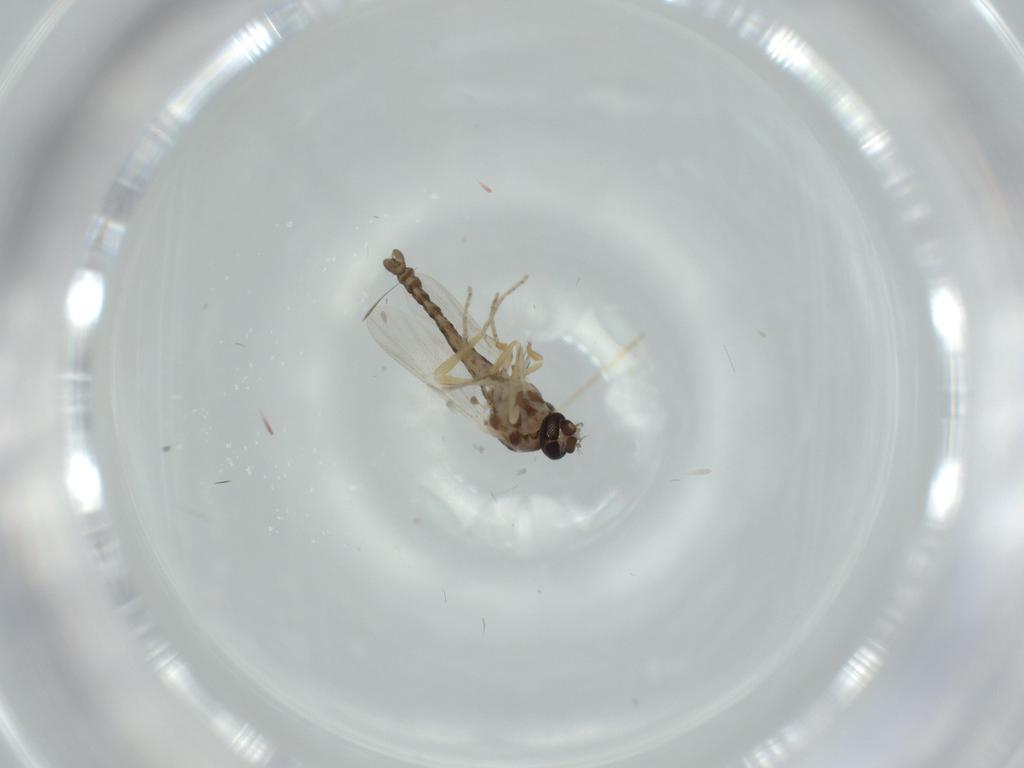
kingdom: Animalia
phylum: Arthropoda
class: Insecta
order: Diptera
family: Ceratopogonidae
